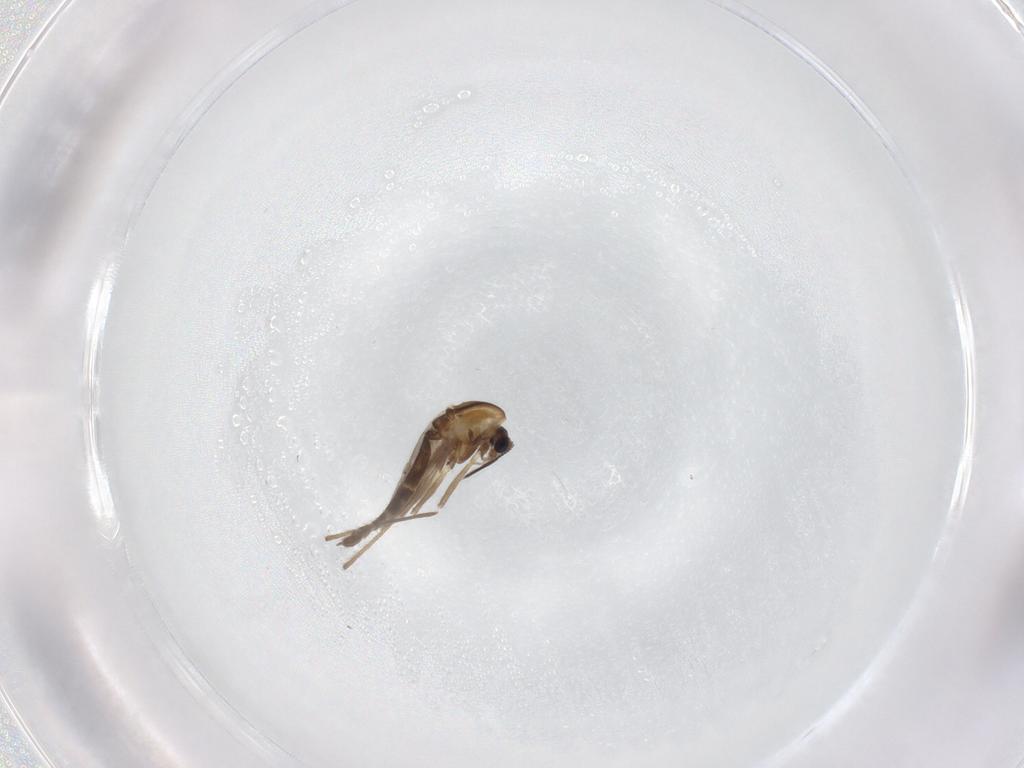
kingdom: Animalia
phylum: Arthropoda
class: Insecta
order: Diptera
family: Chironomidae
